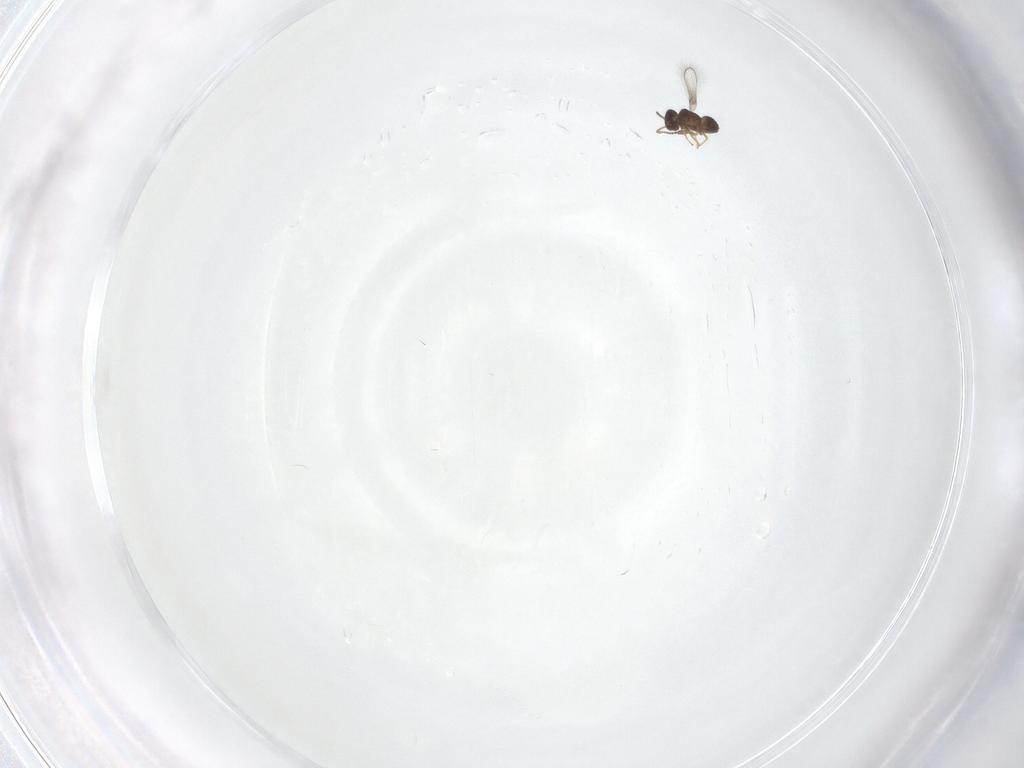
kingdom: Animalia
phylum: Arthropoda
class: Insecta
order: Hymenoptera
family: Mymaridae
